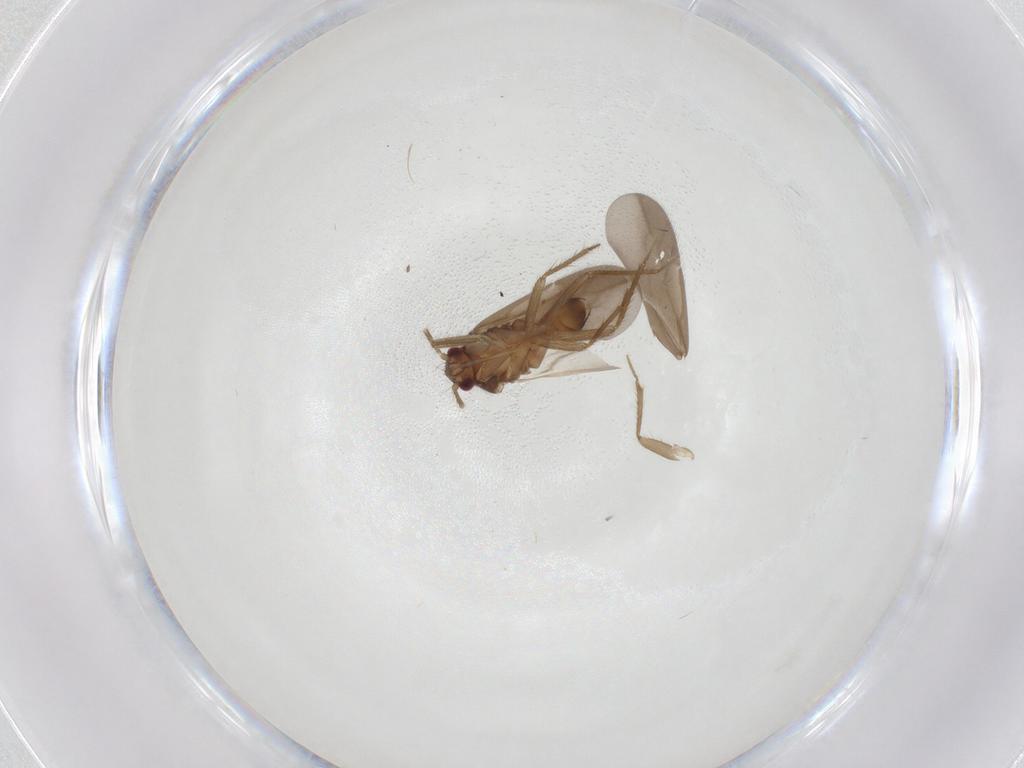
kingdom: Animalia
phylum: Arthropoda
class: Insecta
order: Hemiptera
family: Ceratocombidae
